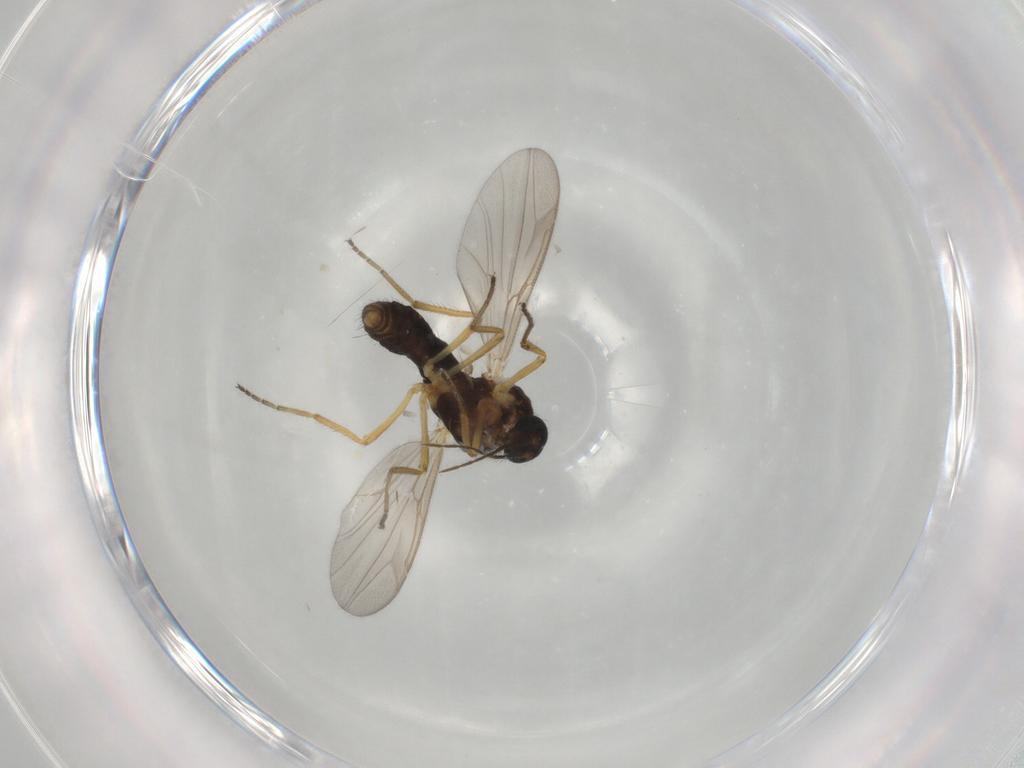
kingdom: Animalia
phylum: Arthropoda
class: Insecta
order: Diptera
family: Ceratopogonidae
